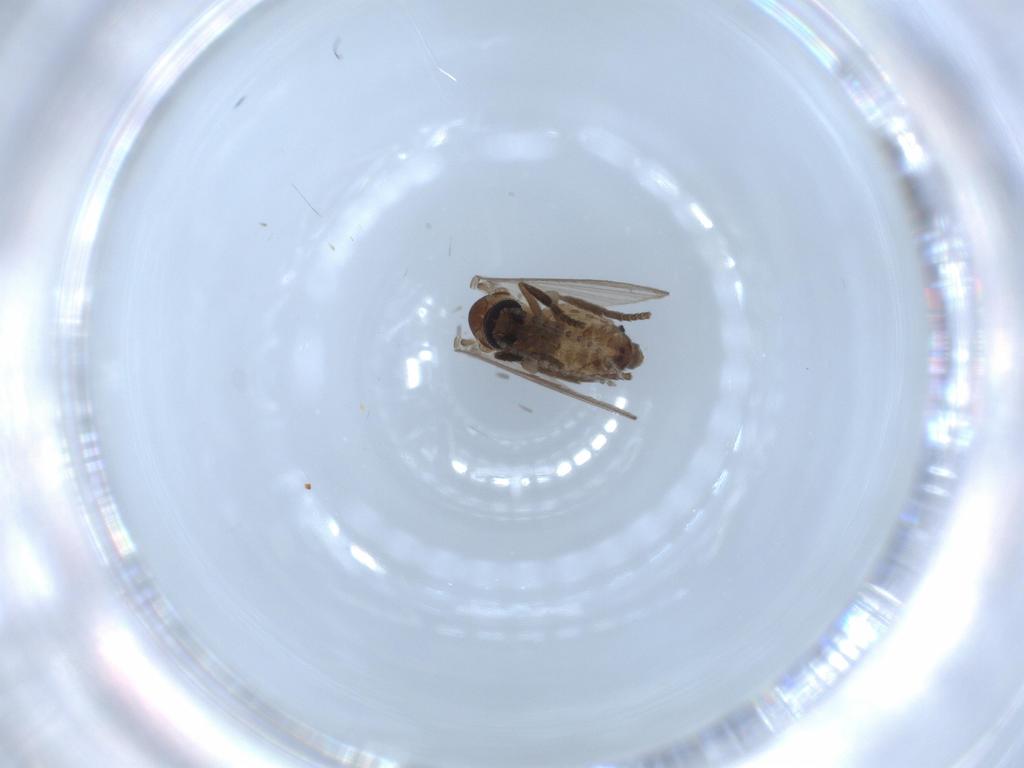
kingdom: Animalia
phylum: Arthropoda
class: Insecta
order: Diptera
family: Psychodidae
